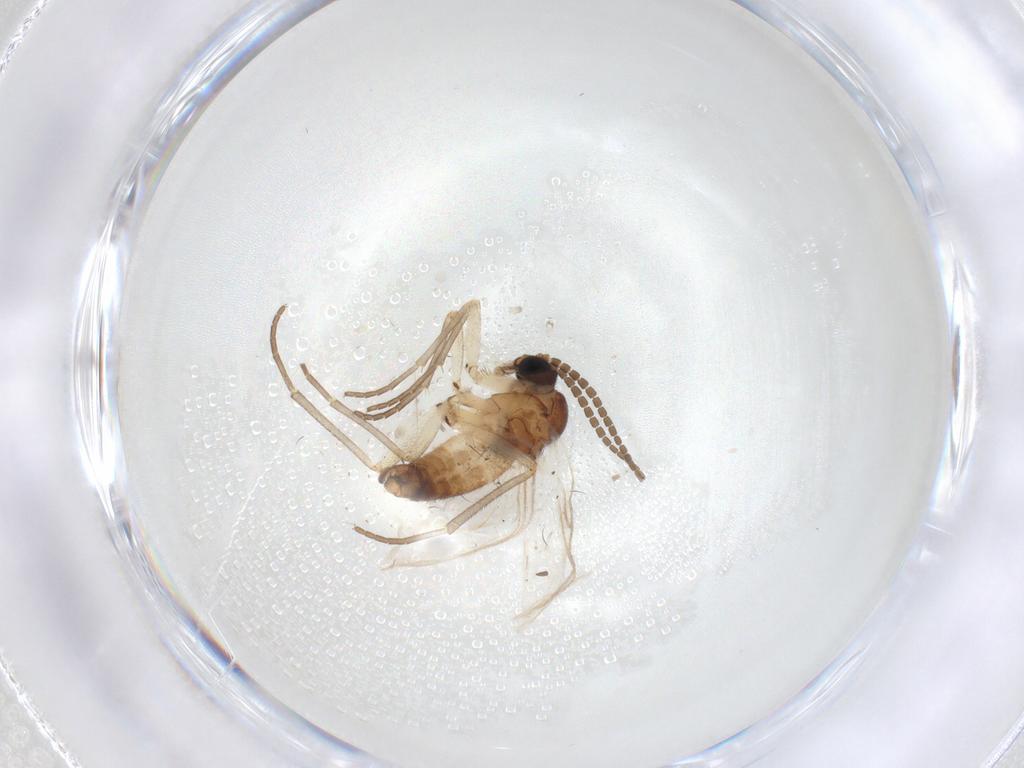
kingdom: Animalia
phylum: Arthropoda
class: Insecta
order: Diptera
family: Sciaridae
